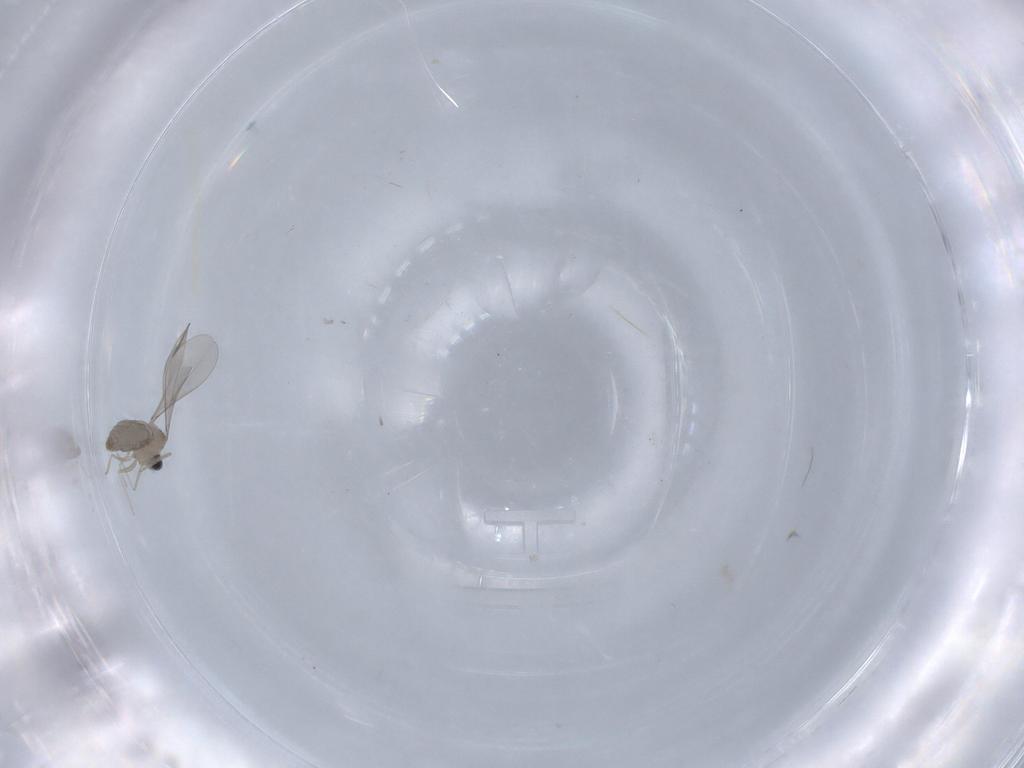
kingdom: Animalia
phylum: Arthropoda
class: Insecta
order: Diptera
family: Cecidomyiidae
